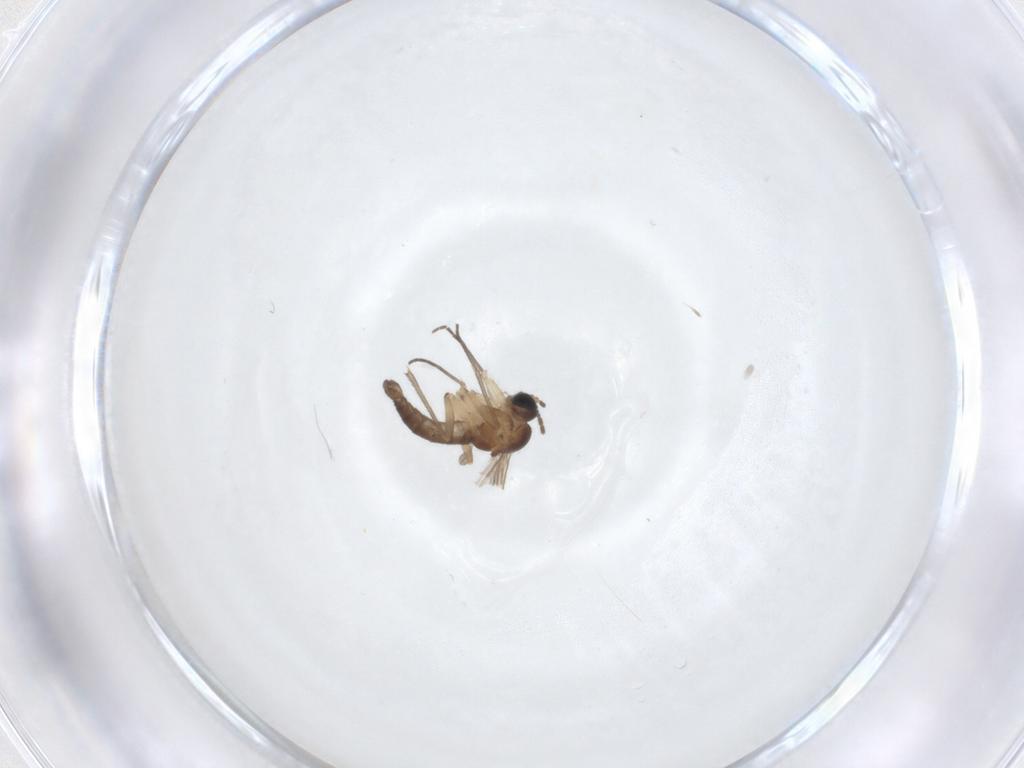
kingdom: Animalia
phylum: Arthropoda
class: Insecta
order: Diptera
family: Sciaridae
